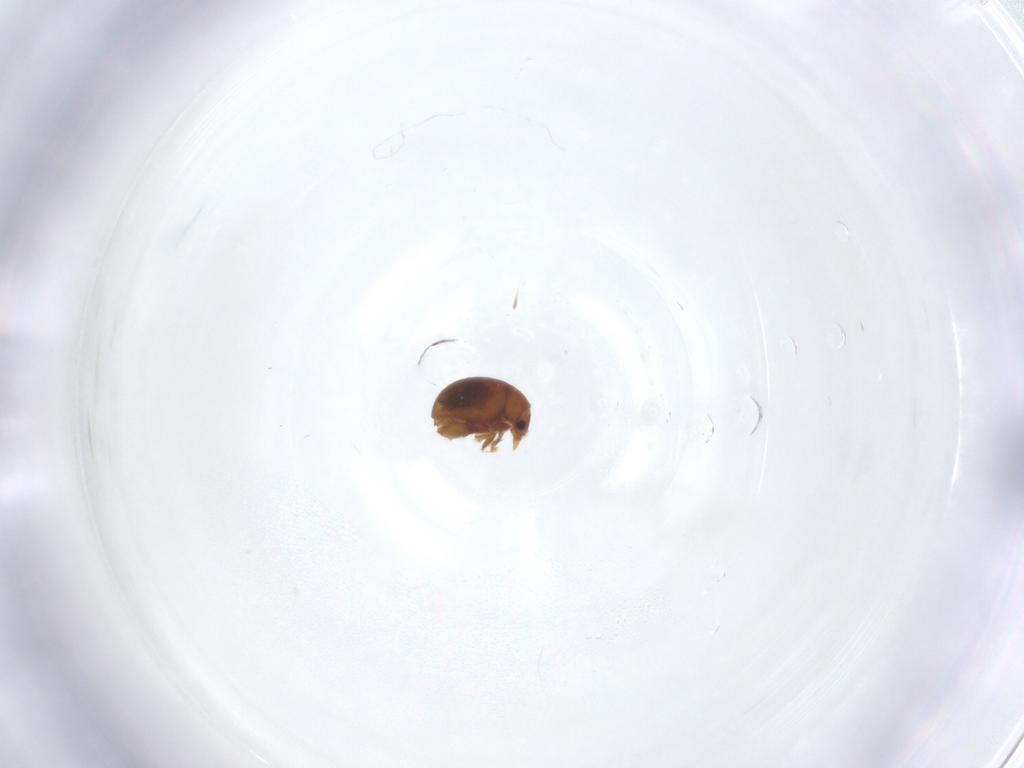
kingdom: Animalia
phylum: Arthropoda
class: Insecta
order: Coleoptera
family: Chrysomelidae
